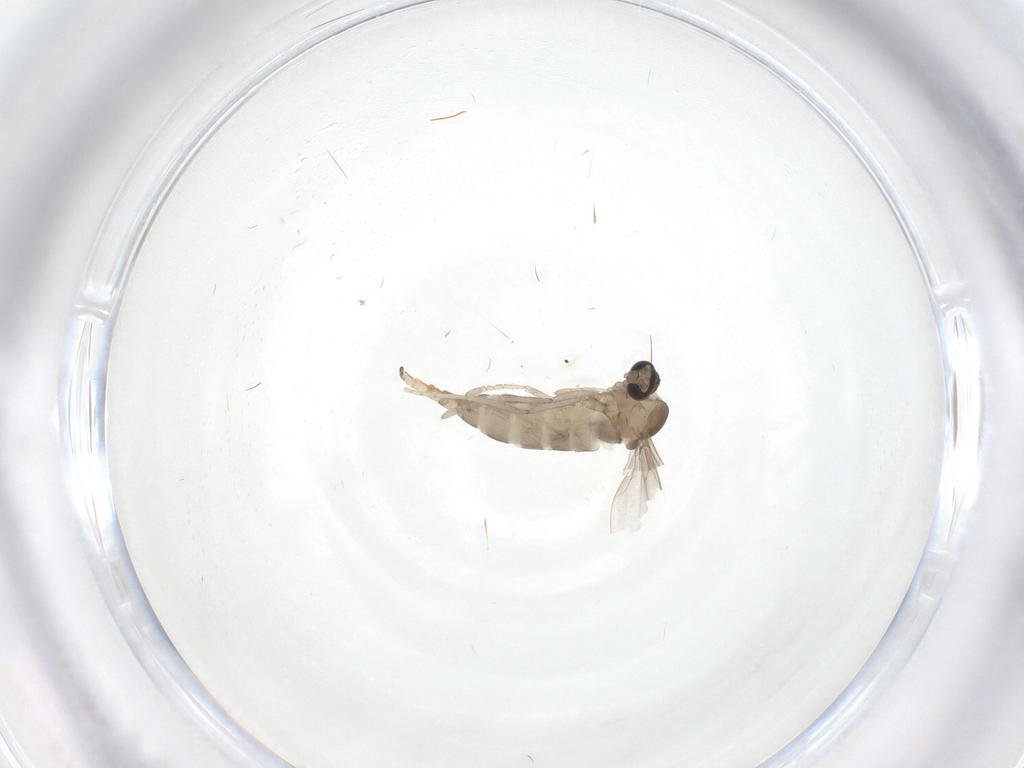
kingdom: Animalia
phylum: Arthropoda
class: Insecta
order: Diptera
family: Cecidomyiidae
